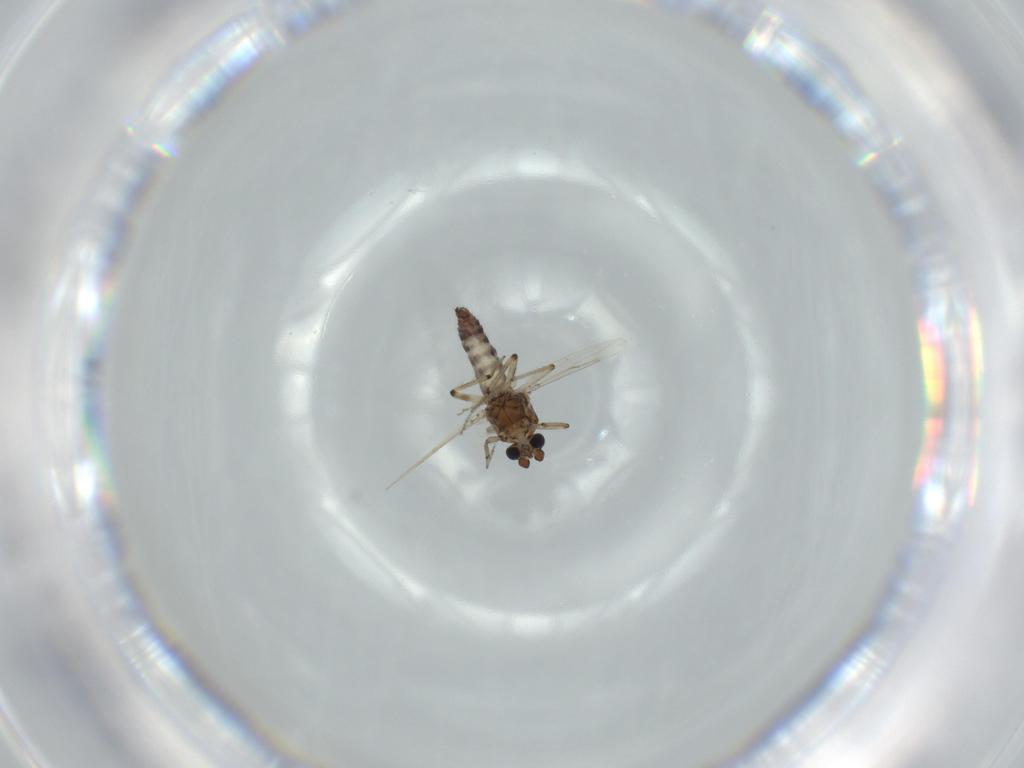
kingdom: Animalia
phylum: Arthropoda
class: Insecta
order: Diptera
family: Ceratopogonidae
